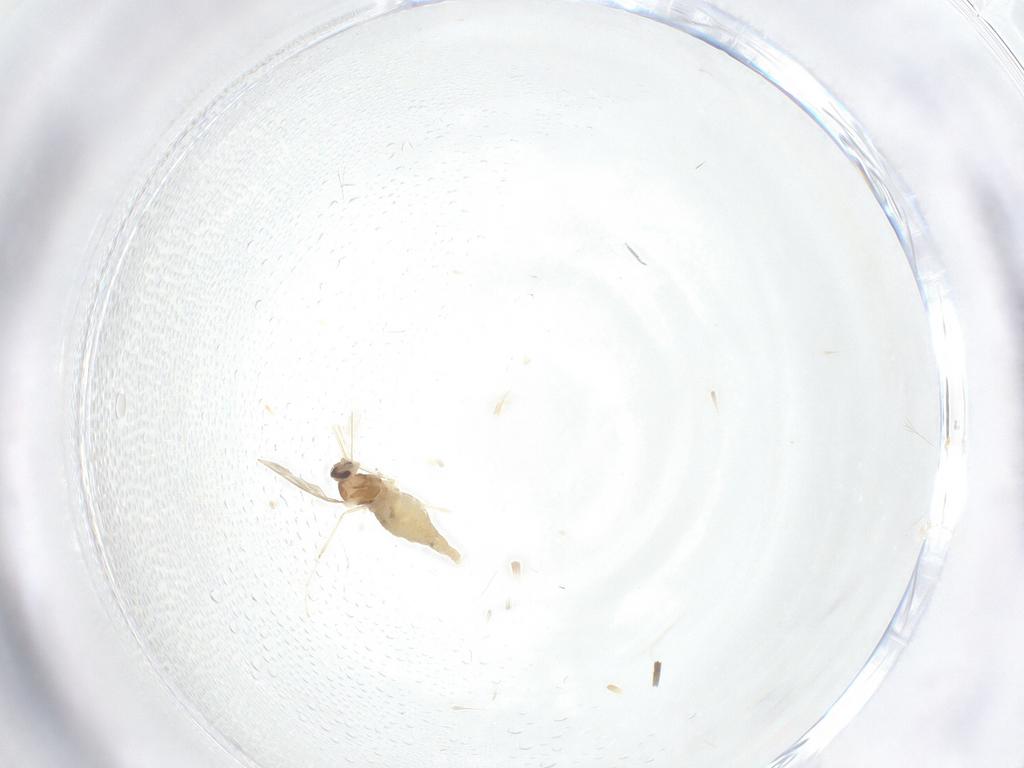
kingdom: Animalia
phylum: Arthropoda
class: Insecta
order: Diptera
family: Cecidomyiidae
